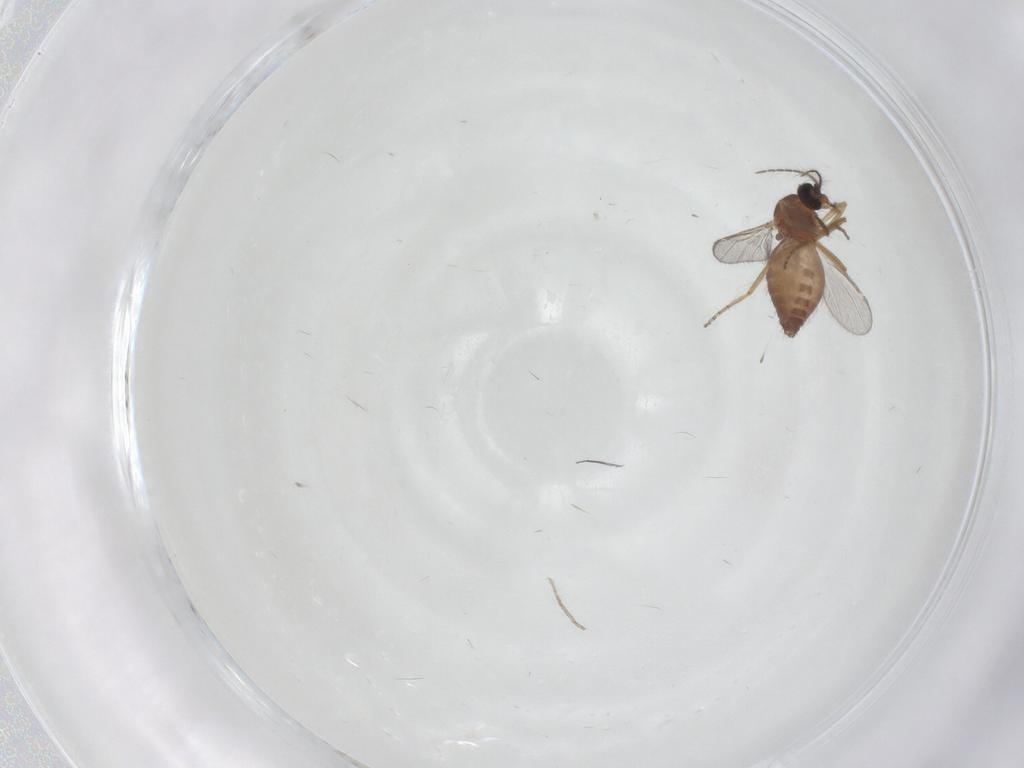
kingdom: Animalia
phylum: Arthropoda
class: Insecta
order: Diptera
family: Ceratopogonidae
